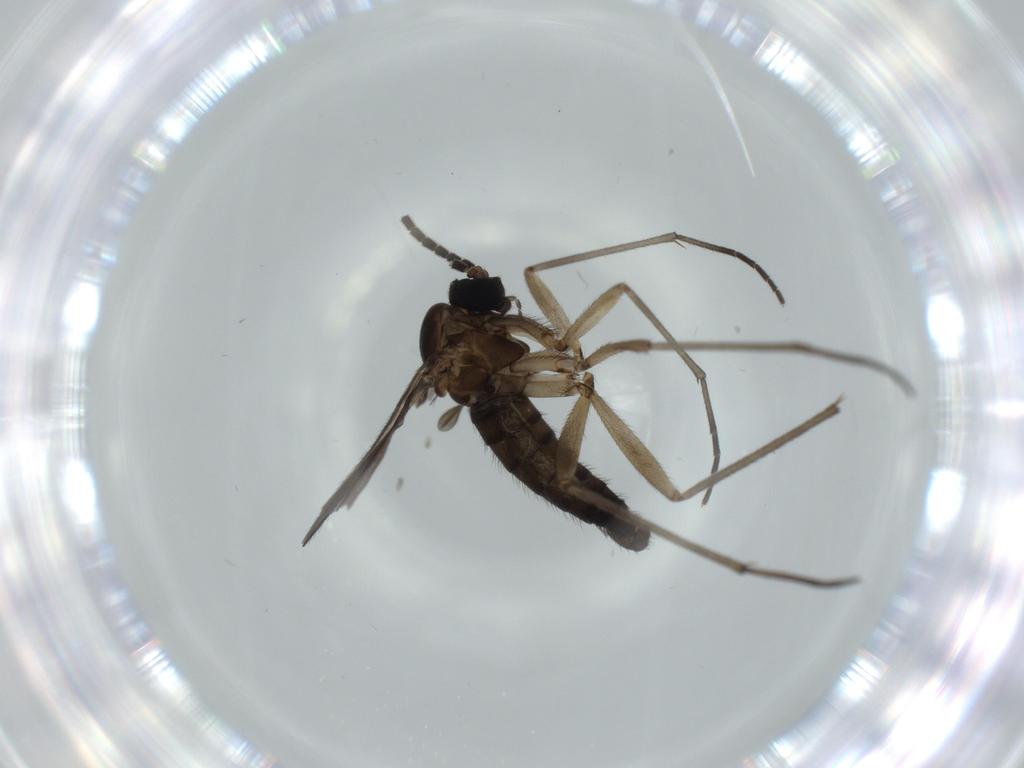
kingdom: Animalia
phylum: Arthropoda
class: Insecta
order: Diptera
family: Sciaridae
